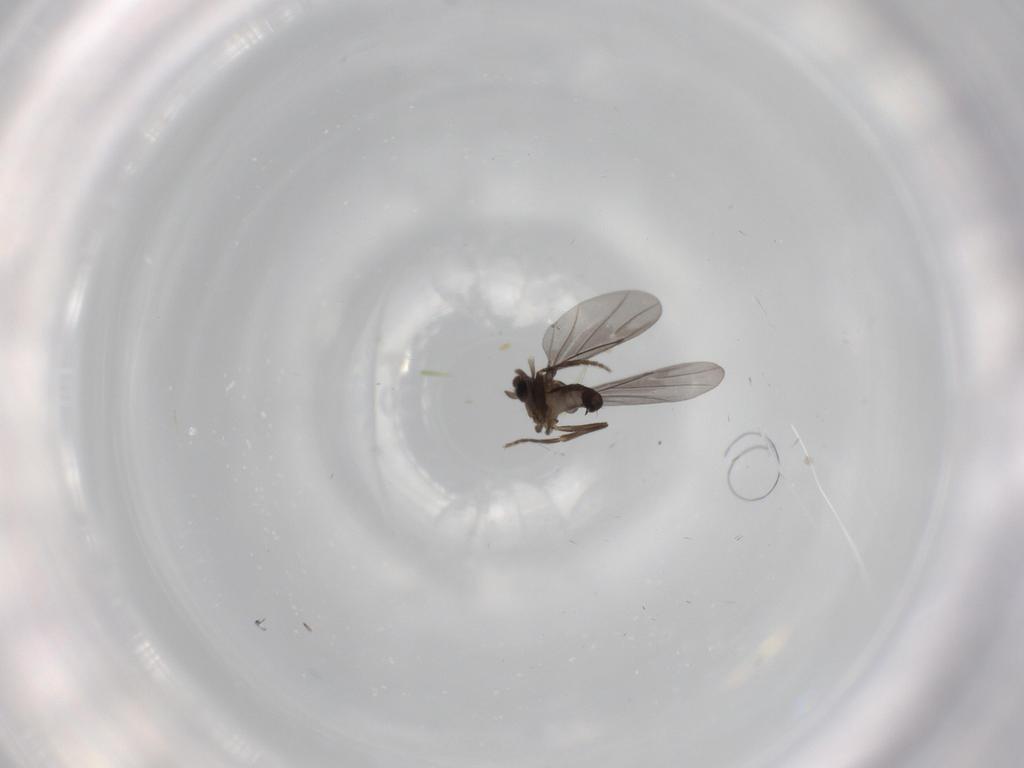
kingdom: Animalia
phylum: Arthropoda
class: Insecta
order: Diptera
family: Phoridae
